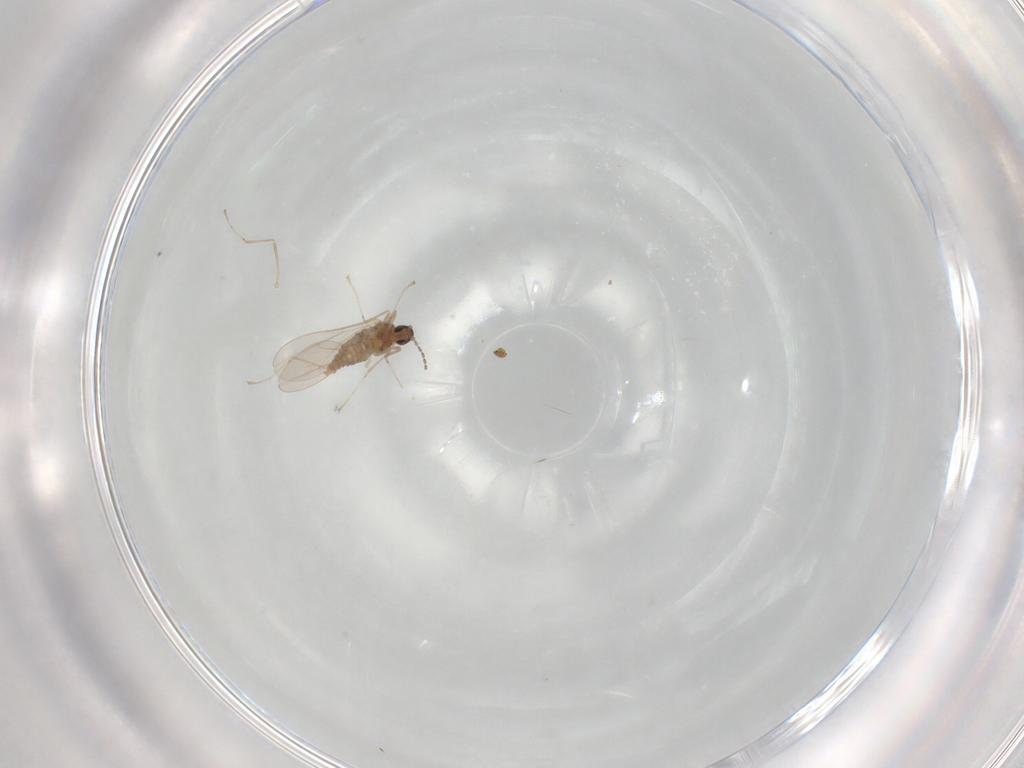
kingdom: Animalia
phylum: Arthropoda
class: Insecta
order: Diptera
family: Cecidomyiidae
